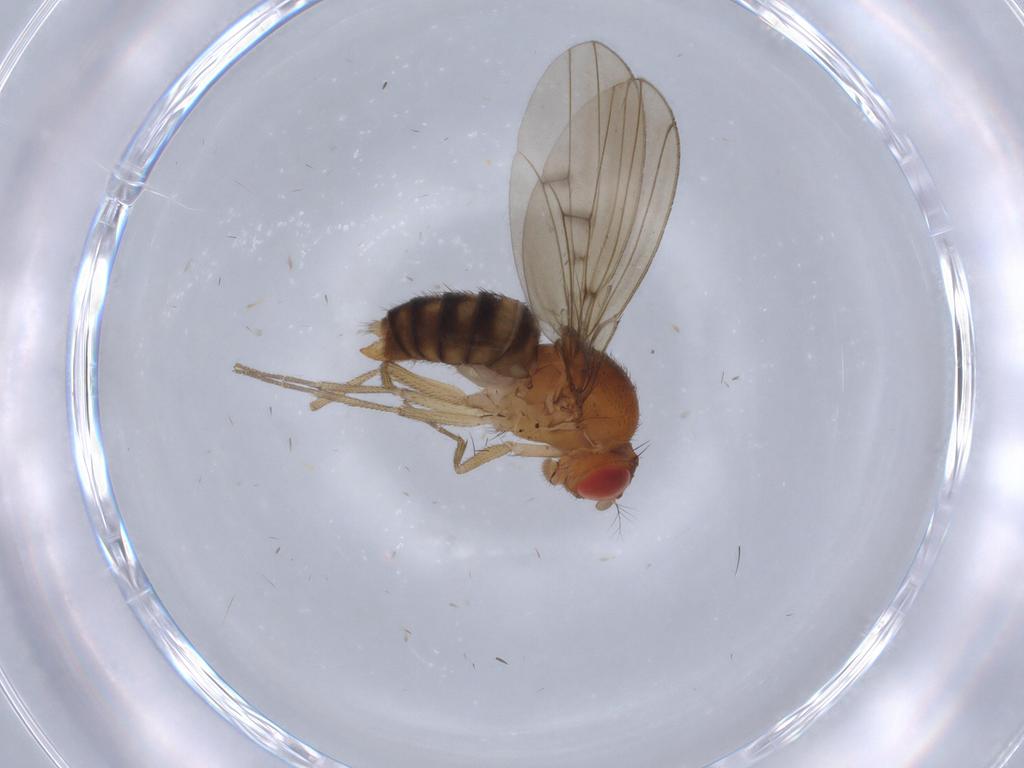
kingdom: Animalia
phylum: Arthropoda
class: Insecta
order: Diptera
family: Drosophilidae
